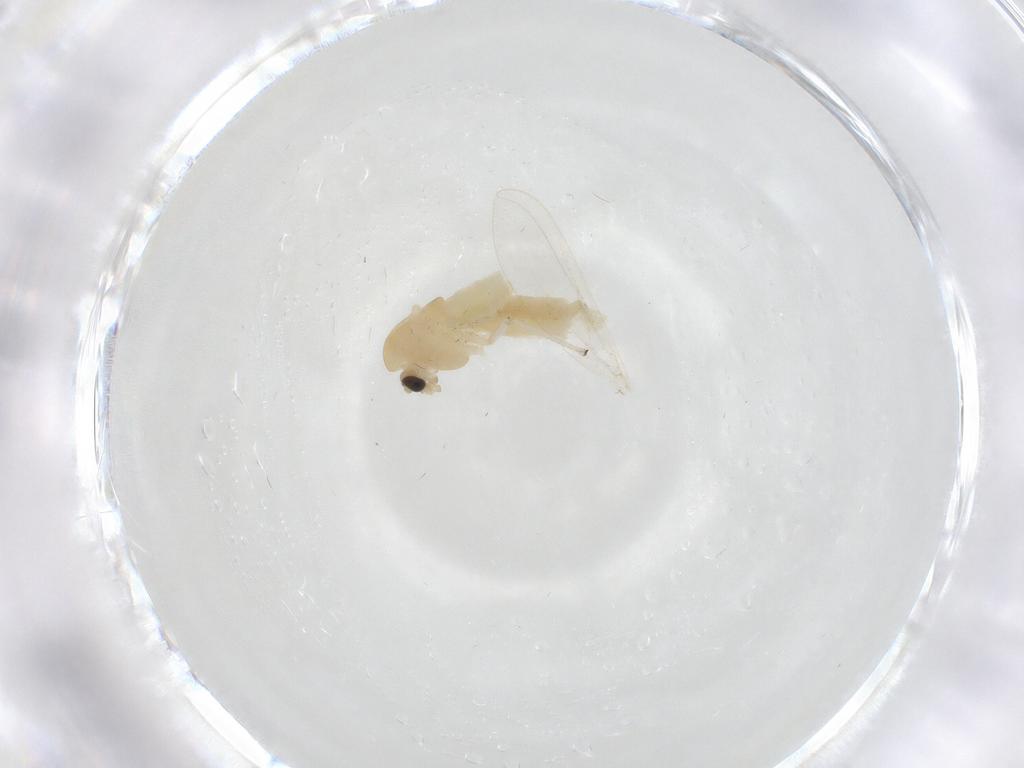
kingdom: Animalia
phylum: Arthropoda
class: Insecta
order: Diptera
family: Chironomidae
